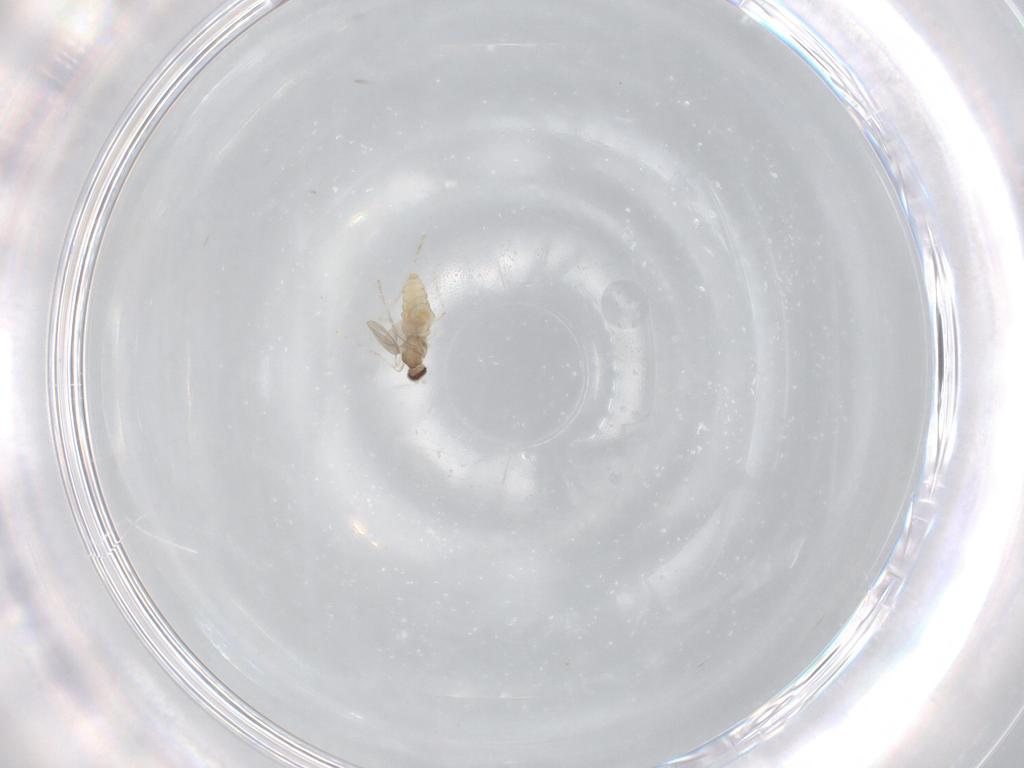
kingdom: Animalia
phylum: Arthropoda
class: Insecta
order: Diptera
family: Cecidomyiidae
